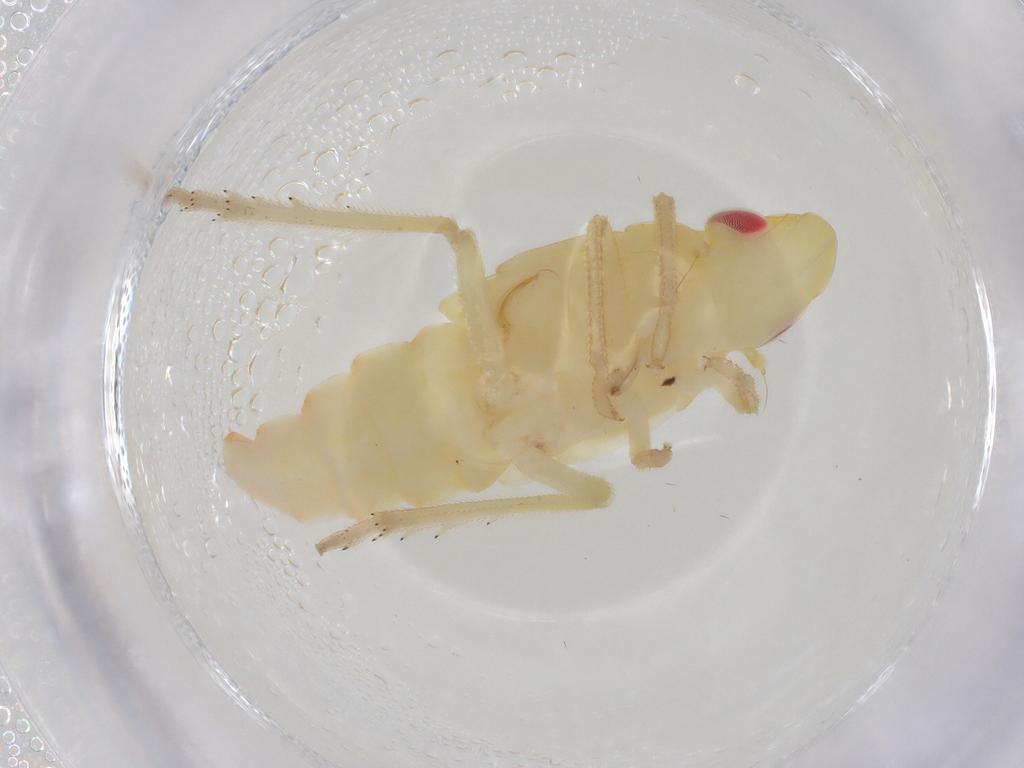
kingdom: Animalia
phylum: Arthropoda
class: Insecta
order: Hemiptera
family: Tropiduchidae
